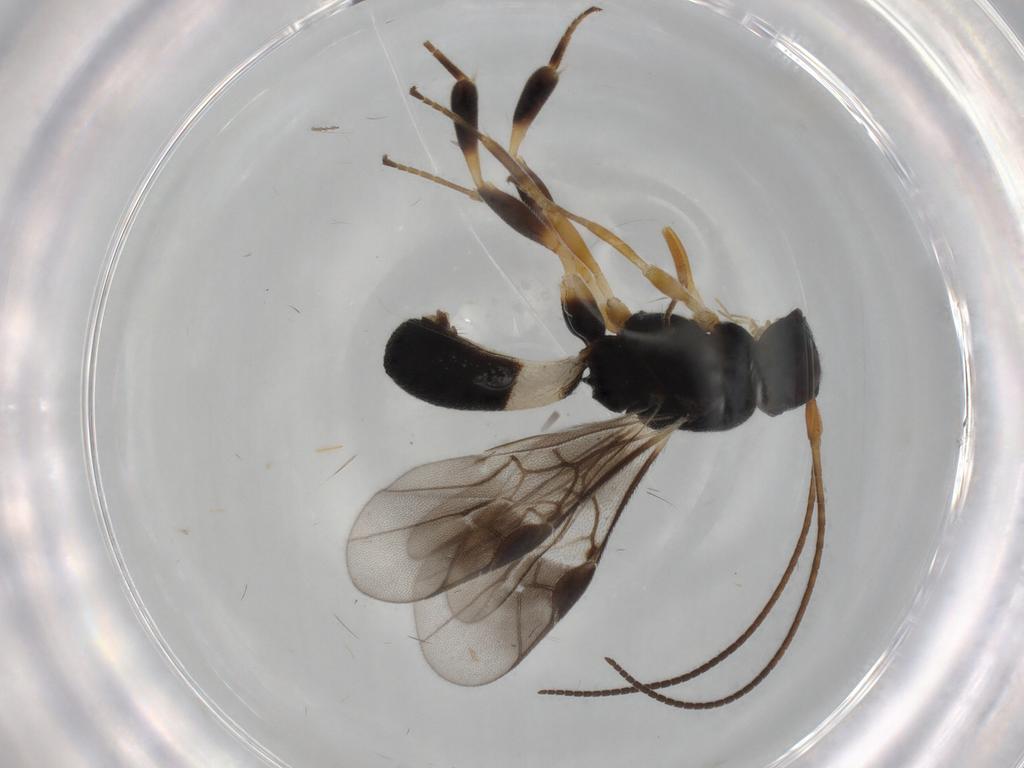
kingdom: Animalia
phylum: Arthropoda
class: Insecta
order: Hymenoptera
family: Braconidae
